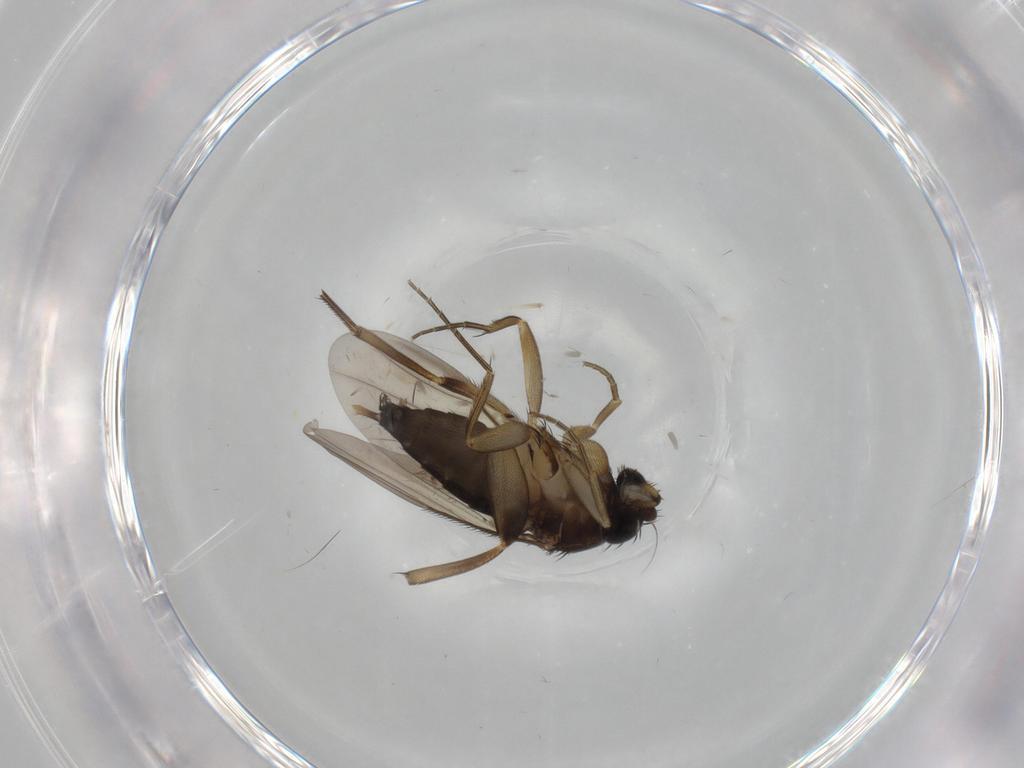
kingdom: Animalia
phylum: Arthropoda
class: Insecta
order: Diptera
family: Phoridae
